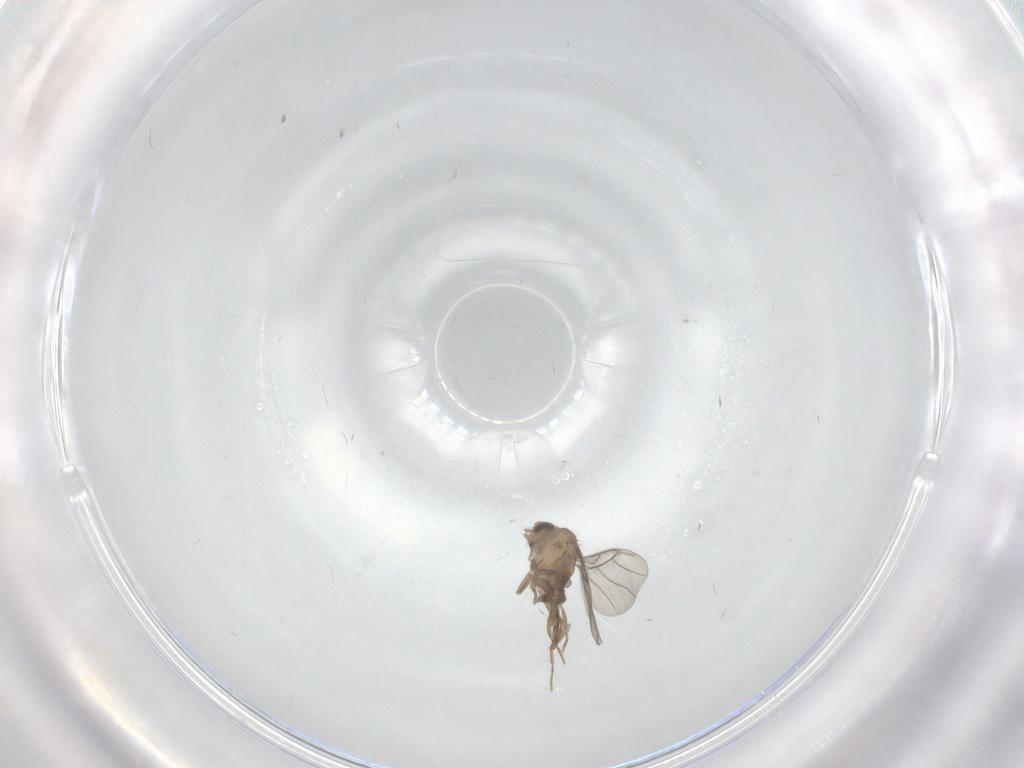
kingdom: Animalia
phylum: Arthropoda
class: Insecta
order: Diptera
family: Psychodidae
